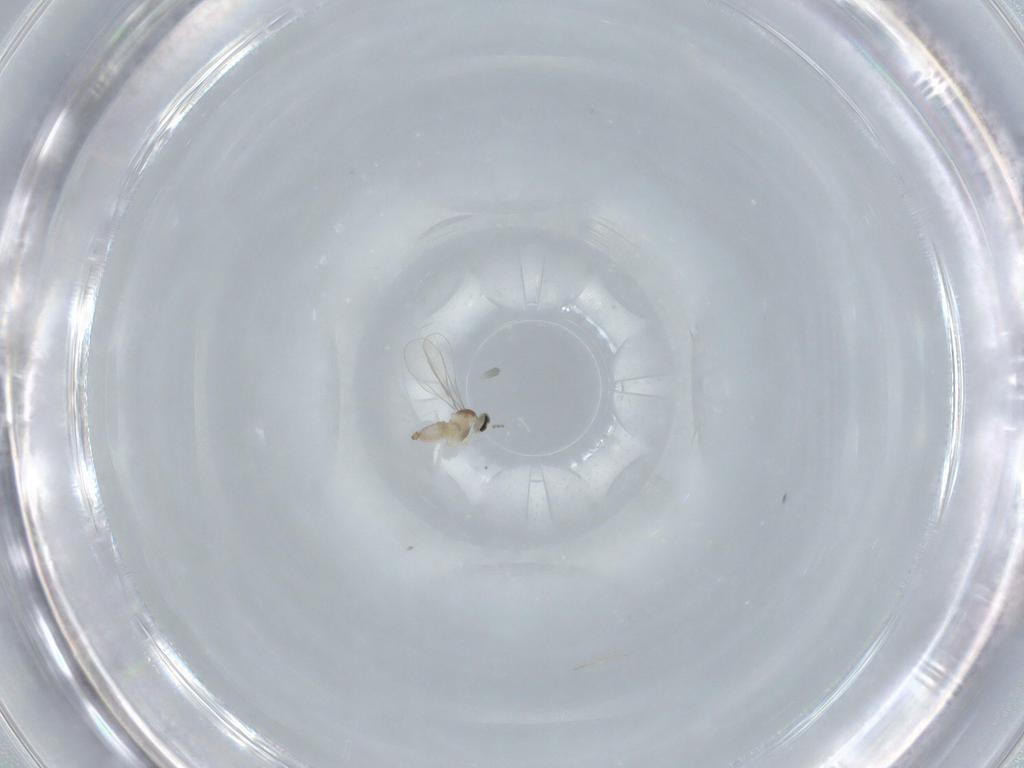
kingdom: Animalia
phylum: Arthropoda
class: Insecta
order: Diptera
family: Cecidomyiidae
